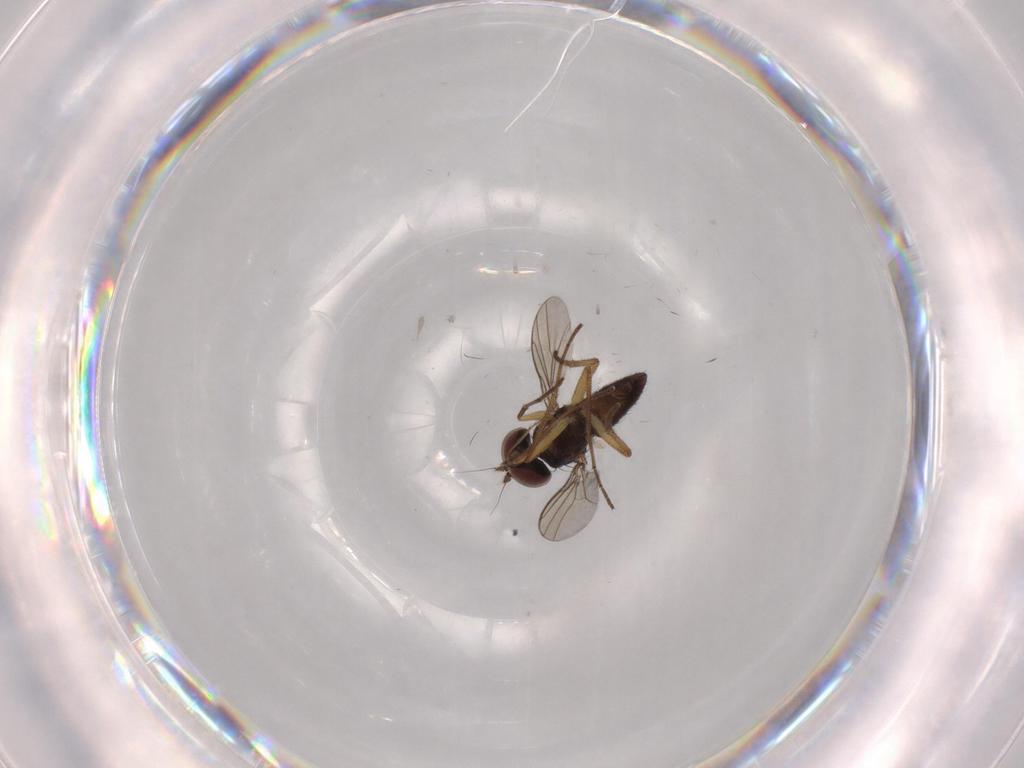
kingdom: Animalia
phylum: Arthropoda
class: Insecta
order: Diptera
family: Dolichopodidae
